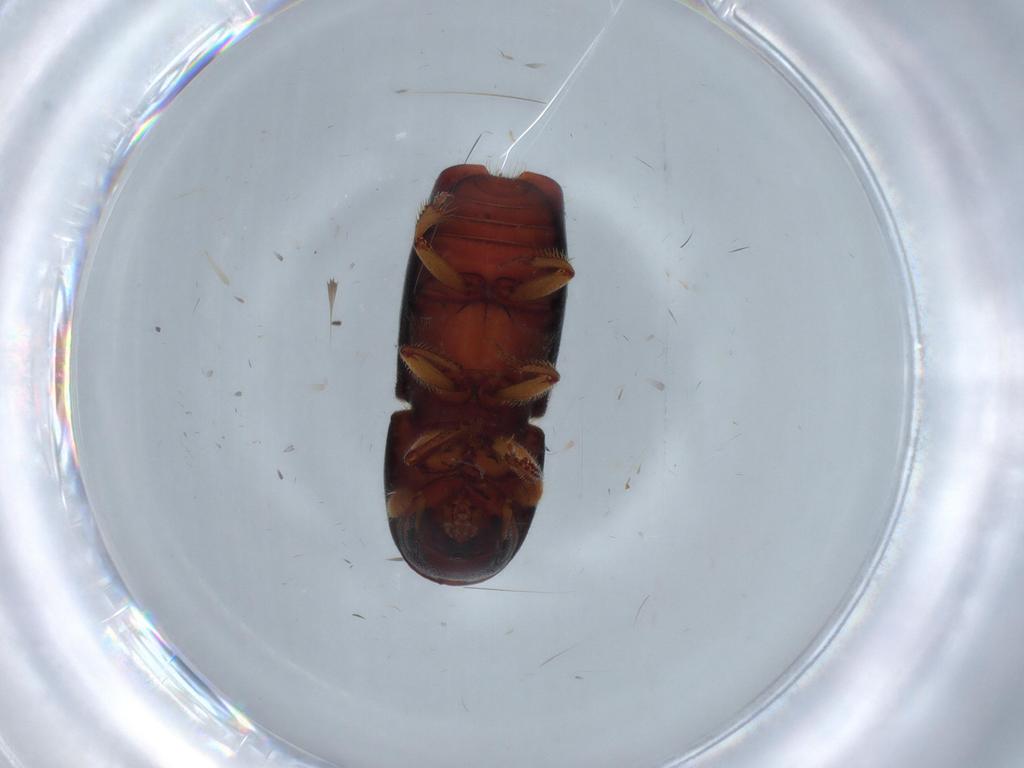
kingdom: Animalia
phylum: Arthropoda
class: Insecta
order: Coleoptera
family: Curculionidae
